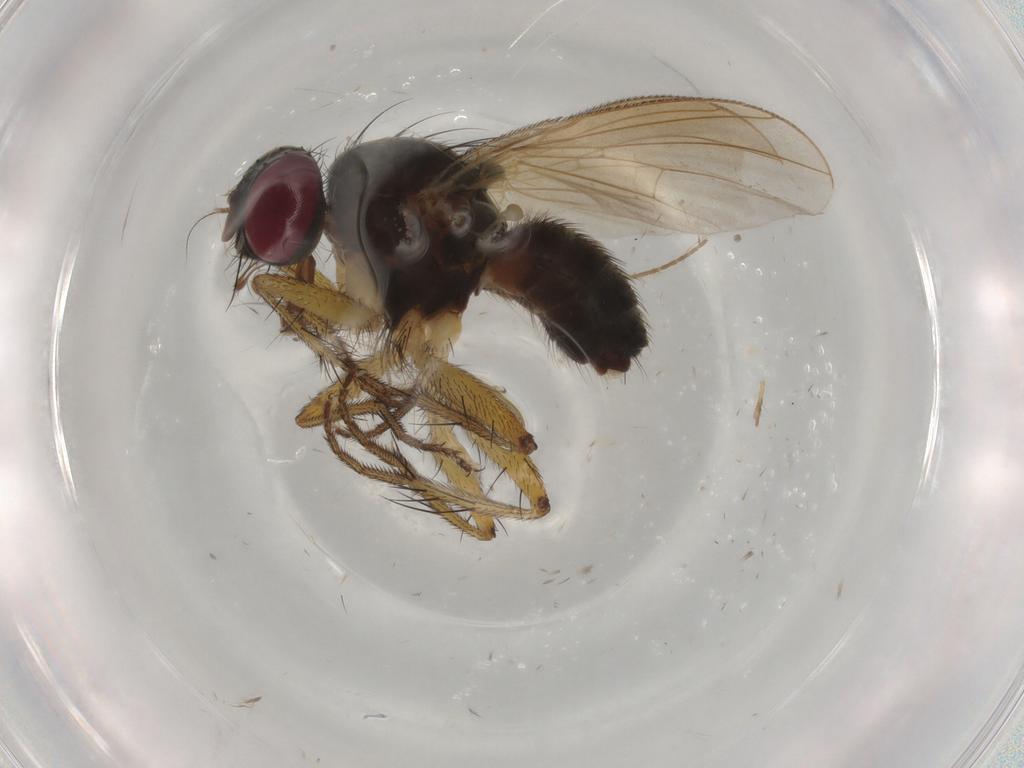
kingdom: Animalia
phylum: Arthropoda
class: Insecta
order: Diptera
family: Muscidae
